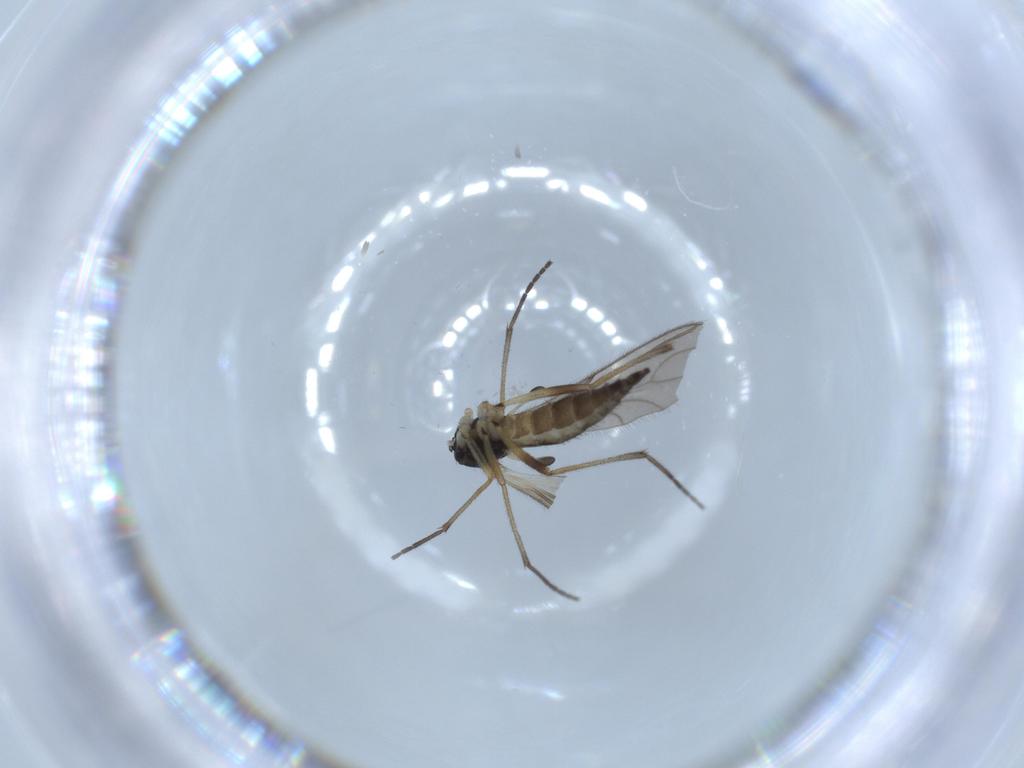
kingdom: Animalia
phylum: Arthropoda
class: Insecta
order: Diptera
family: Sciaridae
